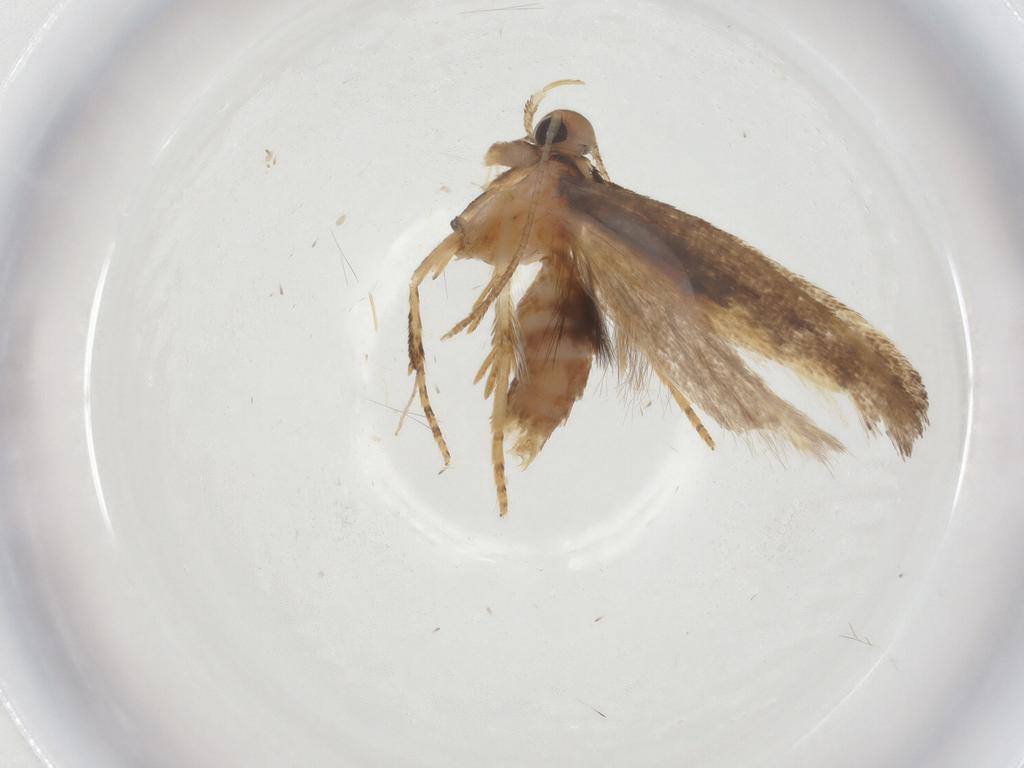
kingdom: Animalia
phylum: Arthropoda
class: Insecta
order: Lepidoptera
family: Crambidae
